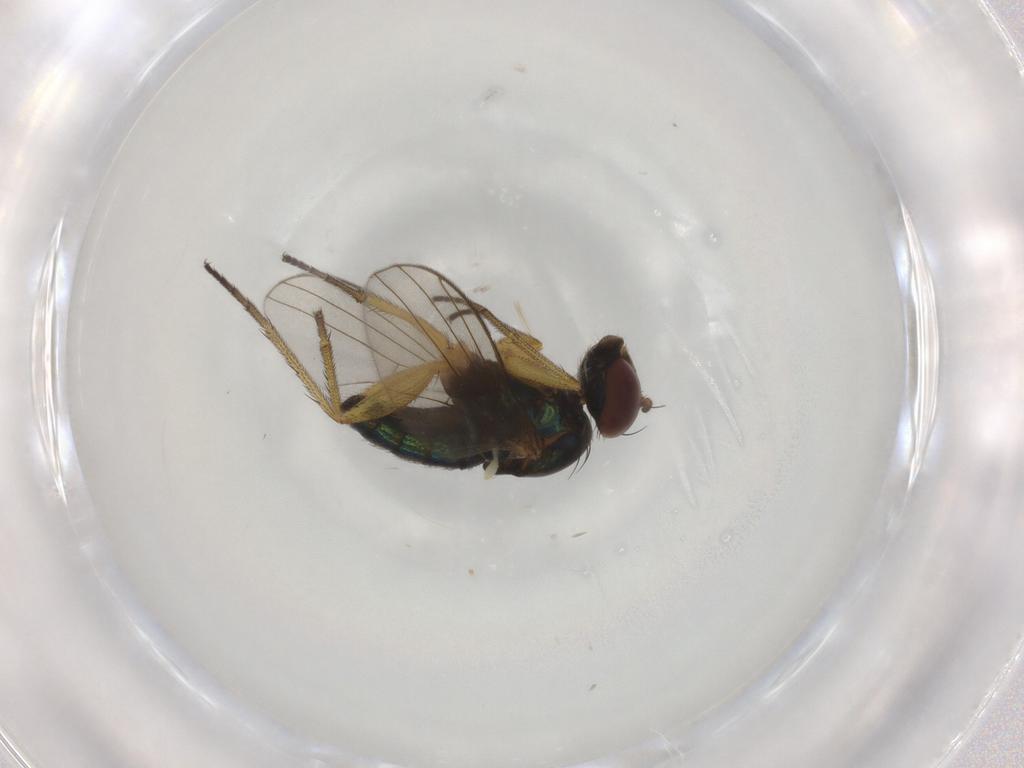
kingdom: Animalia
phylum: Arthropoda
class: Insecta
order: Diptera
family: Dolichopodidae
